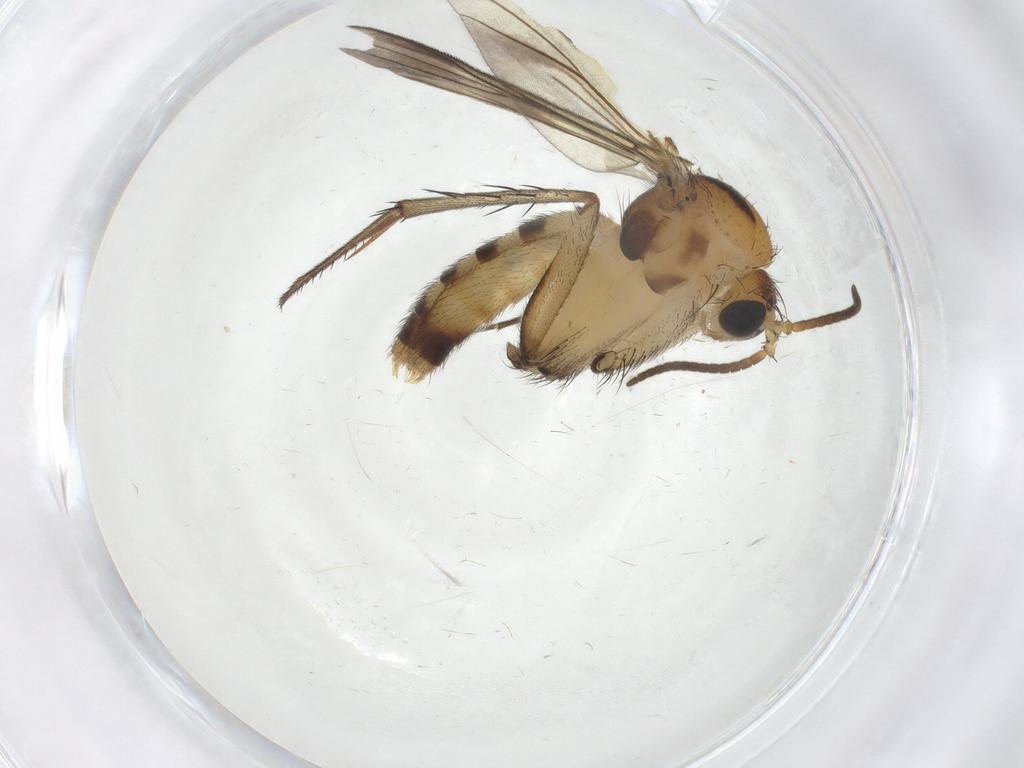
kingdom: Animalia
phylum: Arthropoda
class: Insecta
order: Diptera
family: Mycetophilidae
